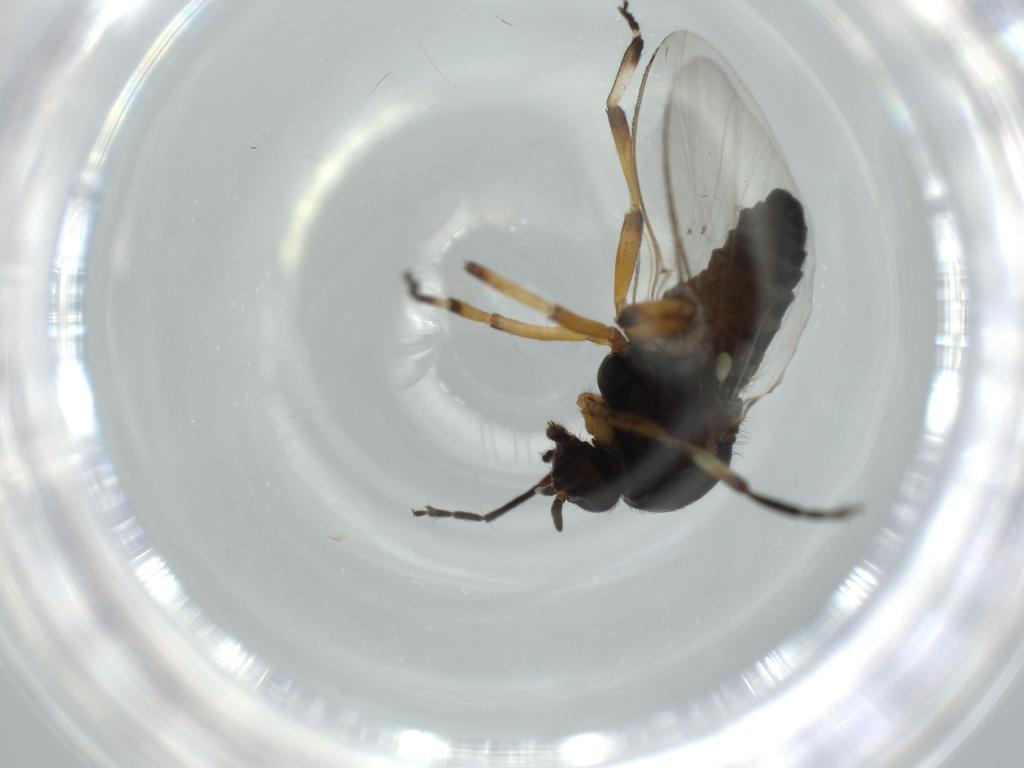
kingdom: Animalia
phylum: Arthropoda
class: Insecta
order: Diptera
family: Phoridae
